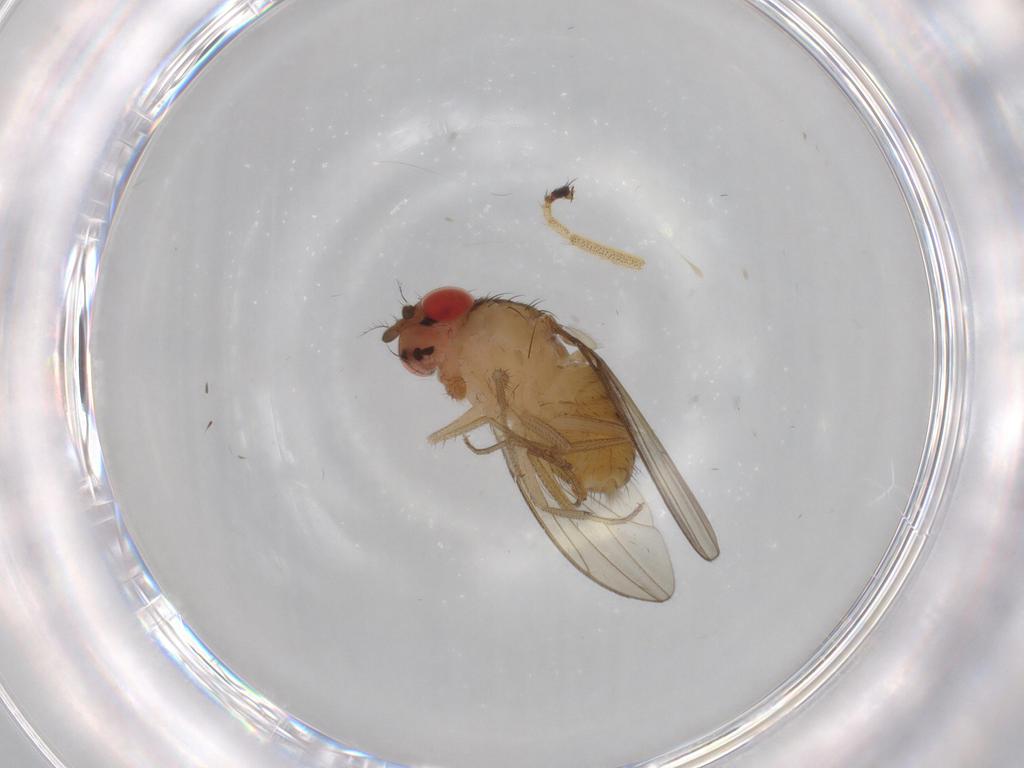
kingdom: Animalia
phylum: Arthropoda
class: Insecta
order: Diptera
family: Drosophilidae
